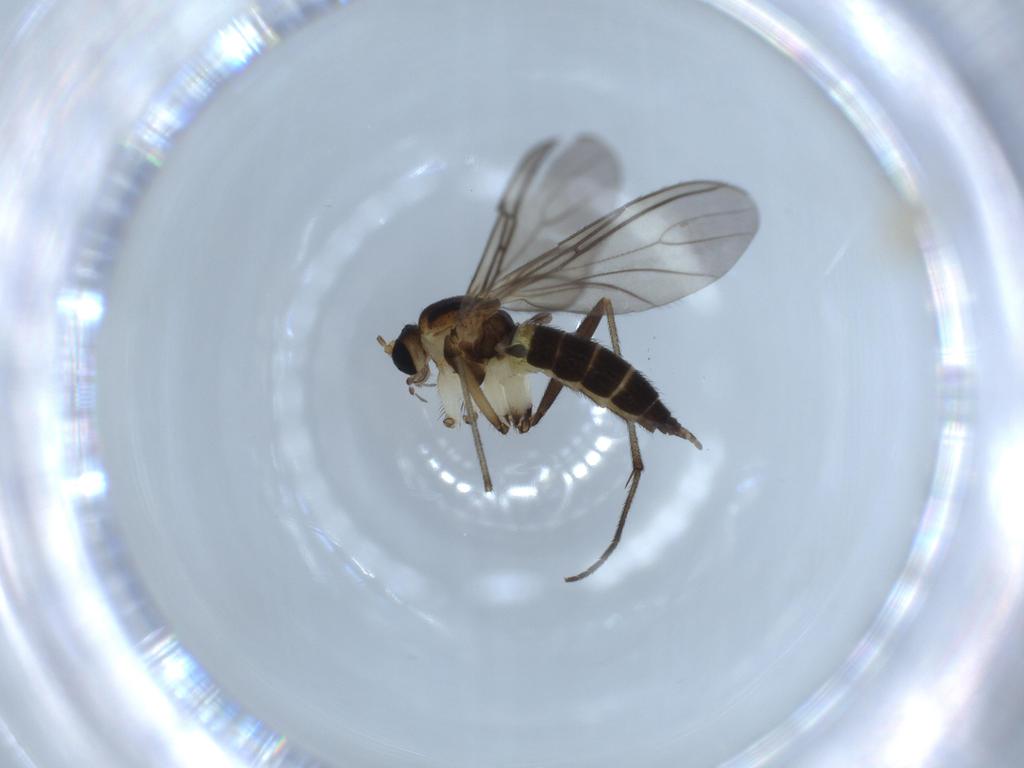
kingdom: Animalia
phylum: Arthropoda
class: Insecta
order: Diptera
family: Cecidomyiidae
